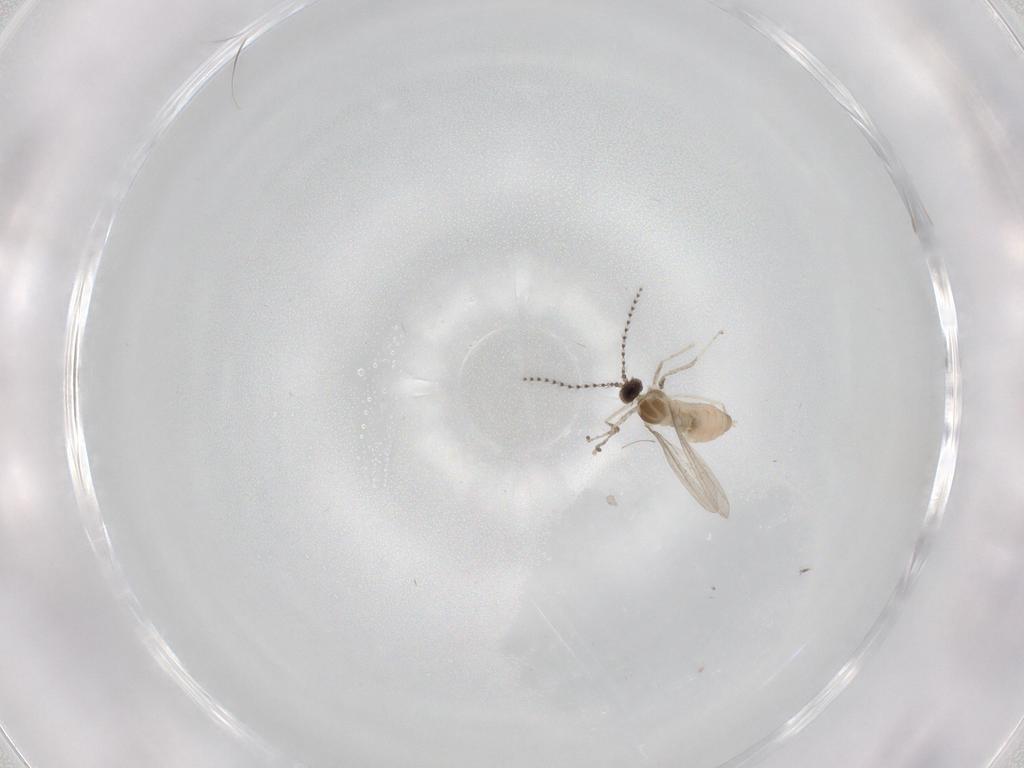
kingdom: Animalia
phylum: Arthropoda
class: Insecta
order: Diptera
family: Cecidomyiidae
